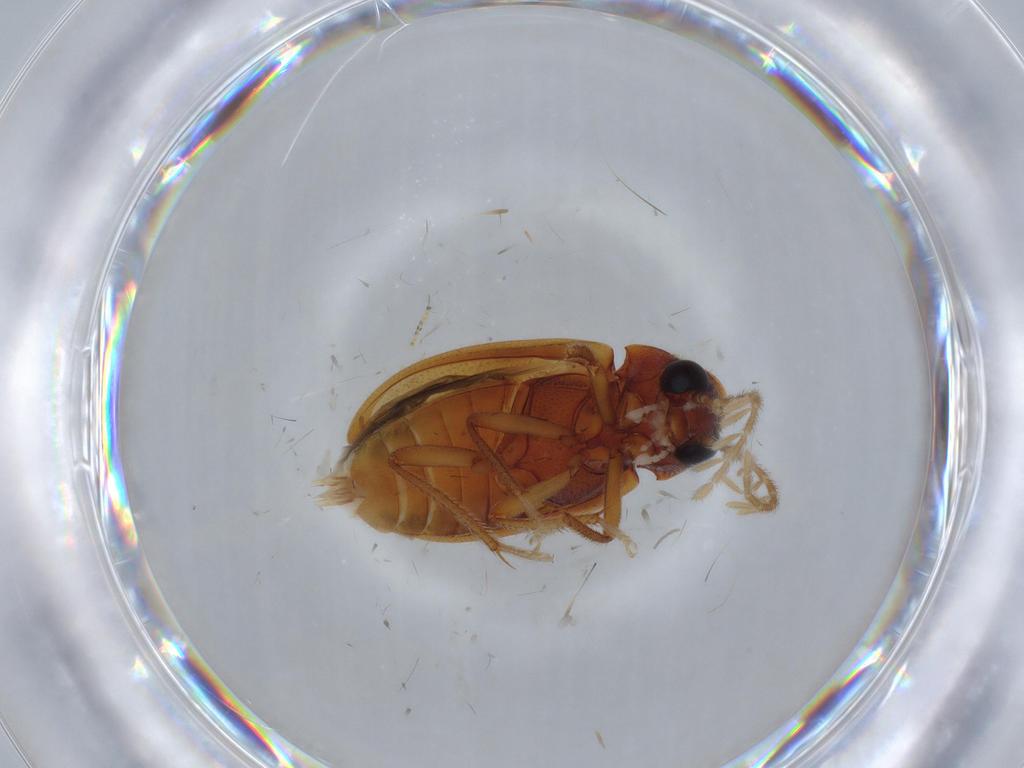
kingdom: Animalia
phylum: Arthropoda
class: Insecta
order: Coleoptera
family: Ptilodactylidae
